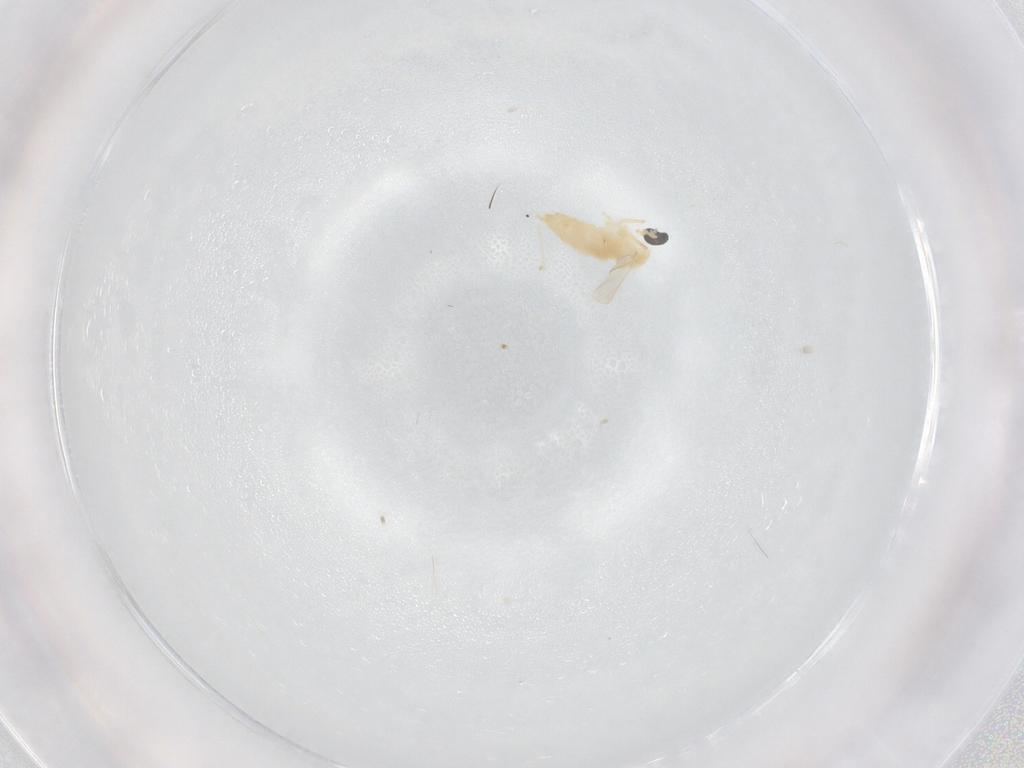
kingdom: Animalia
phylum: Arthropoda
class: Insecta
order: Diptera
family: Cecidomyiidae
